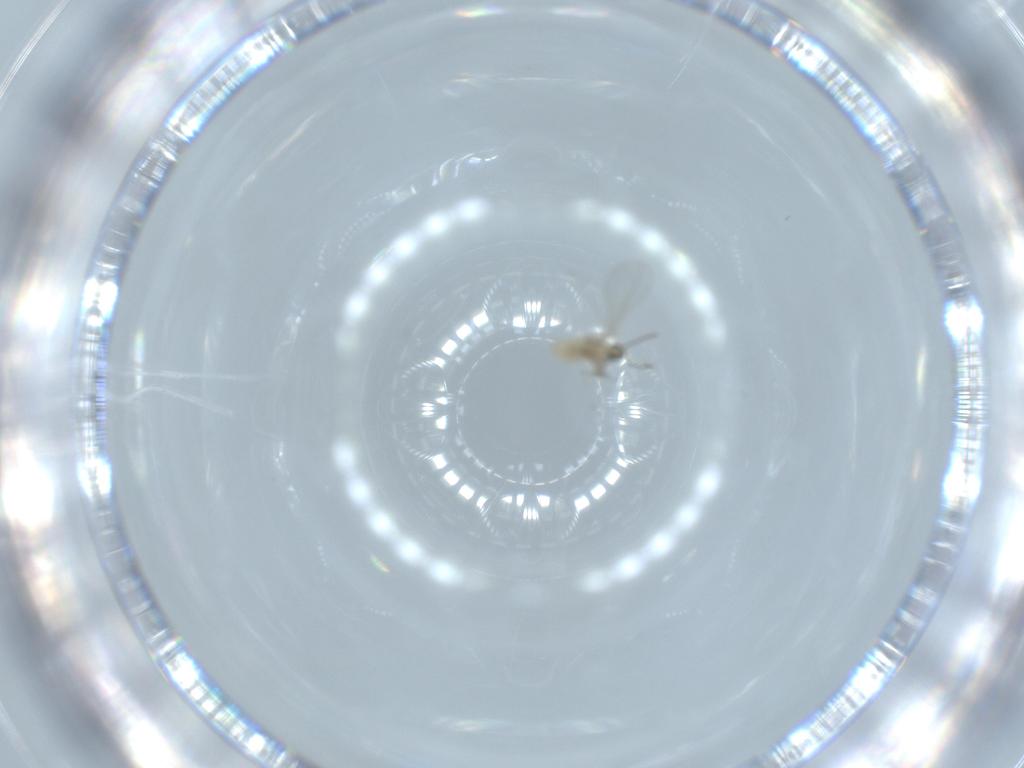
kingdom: Animalia
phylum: Arthropoda
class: Insecta
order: Diptera
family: Cecidomyiidae
